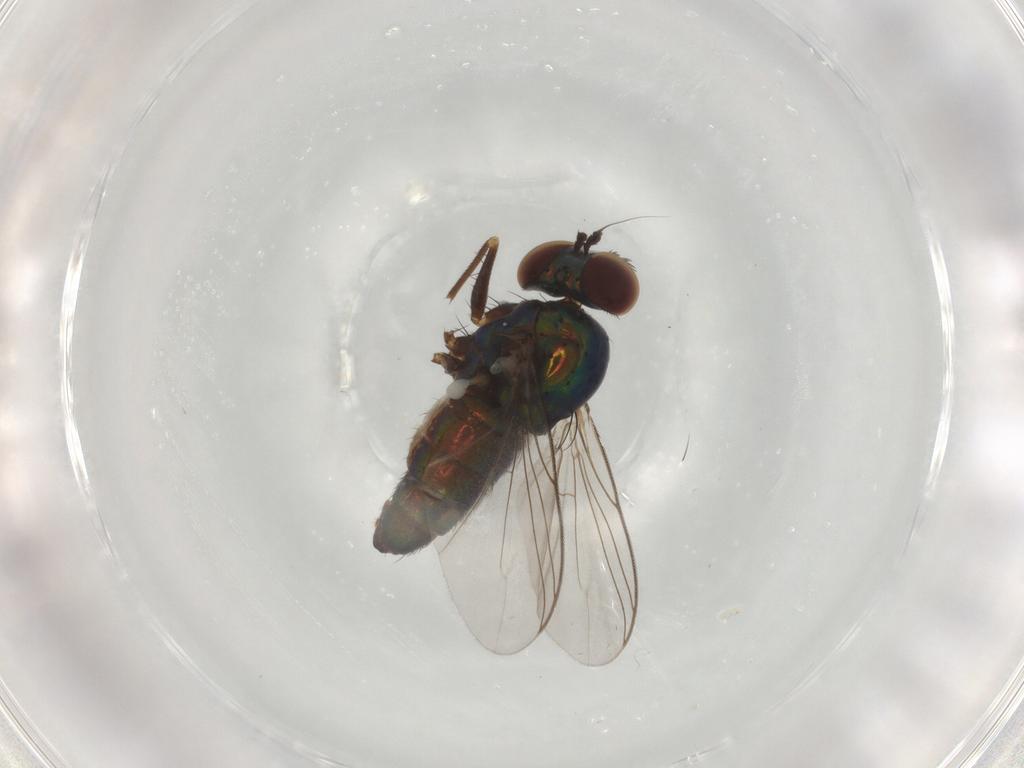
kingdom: Animalia
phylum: Arthropoda
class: Insecta
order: Diptera
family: Dolichopodidae
